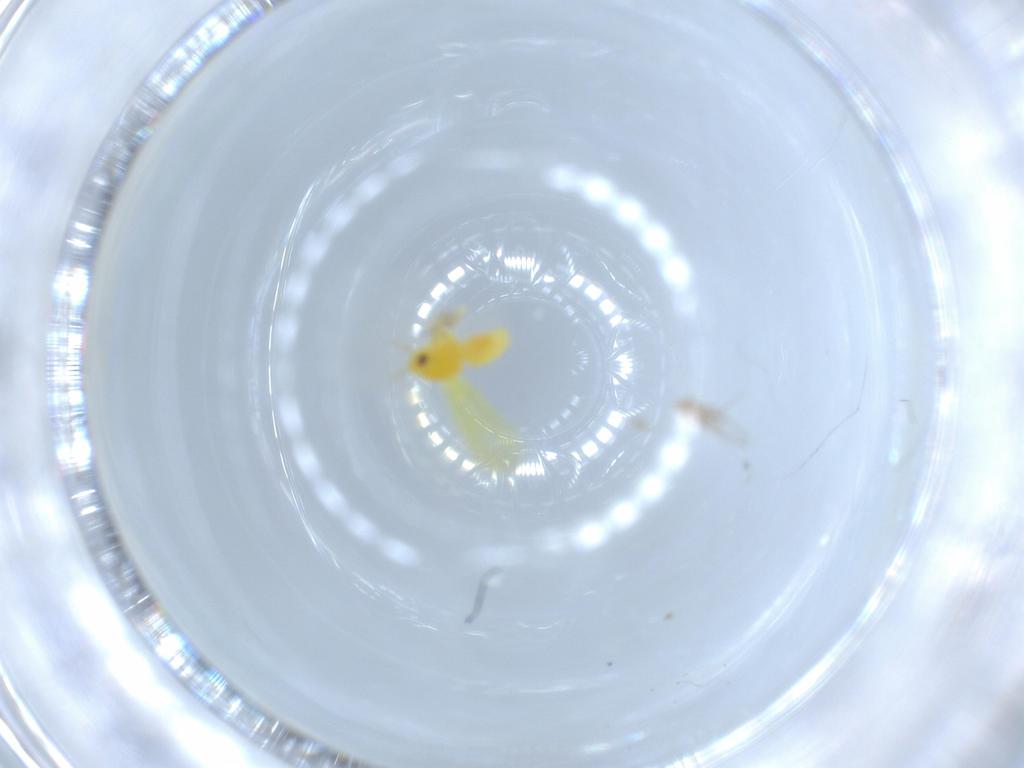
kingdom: Animalia
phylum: Arthropoda
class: Insecta
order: Hemiptera
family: Aleyrodidae
